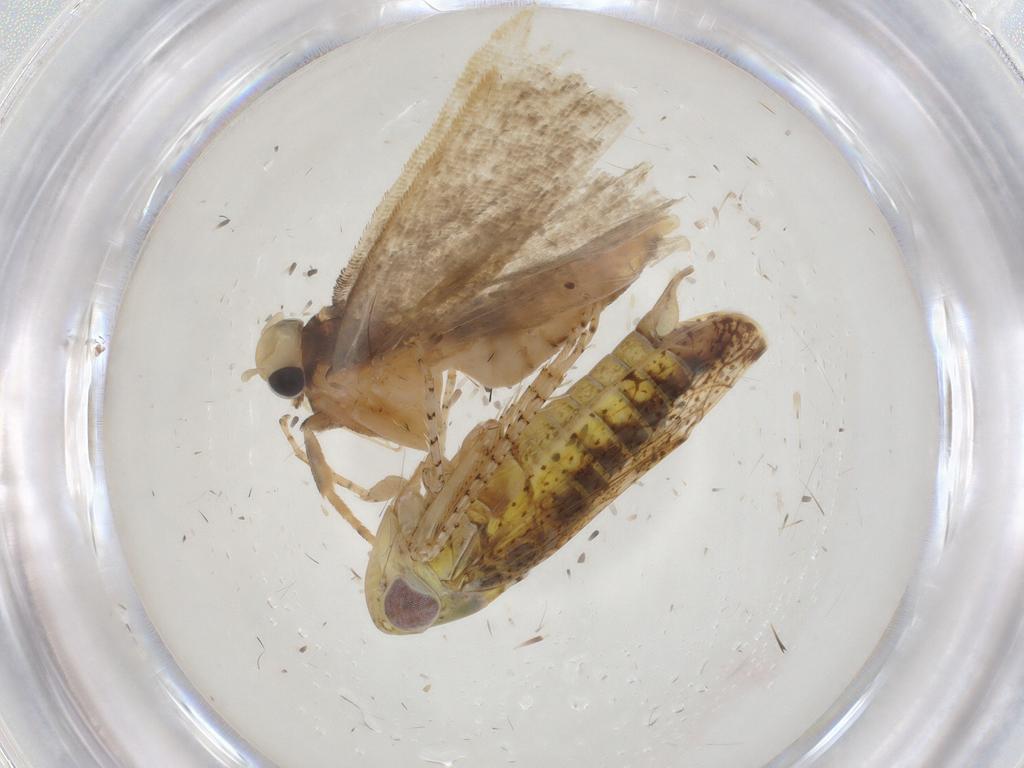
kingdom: Animalia
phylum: Arthropoda
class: Insecta
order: Hemiptera
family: Cicadellidae
